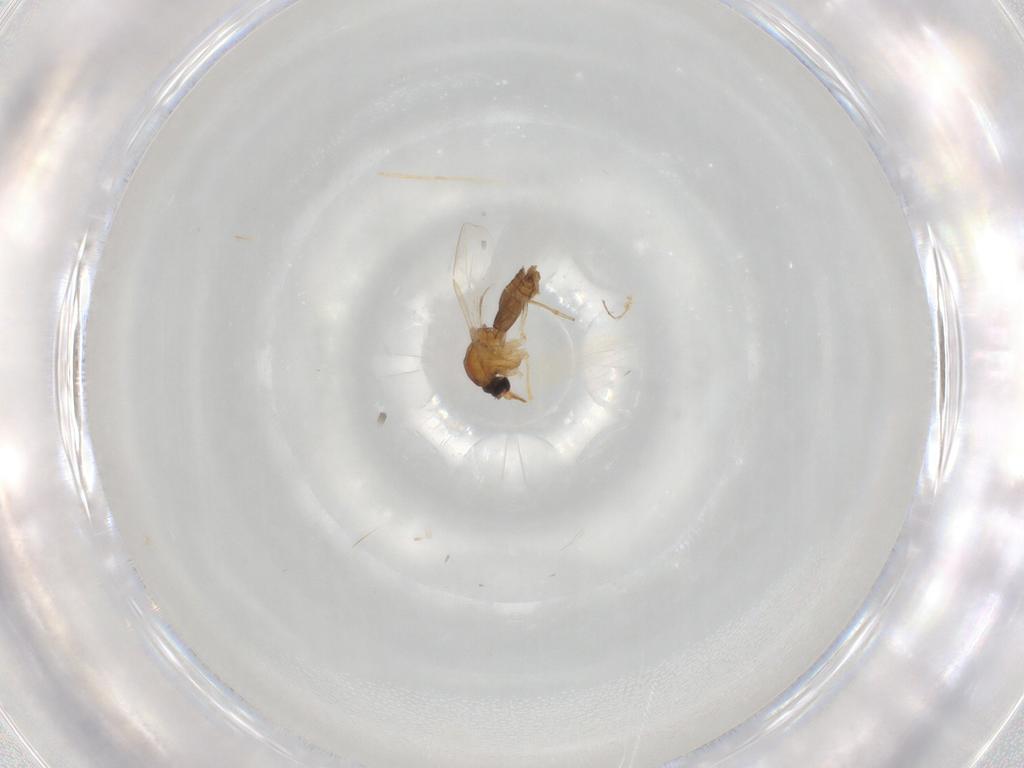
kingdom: Animalia
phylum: Arthropoda
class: Insecta
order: Diptera
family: Ceratopogonidae
